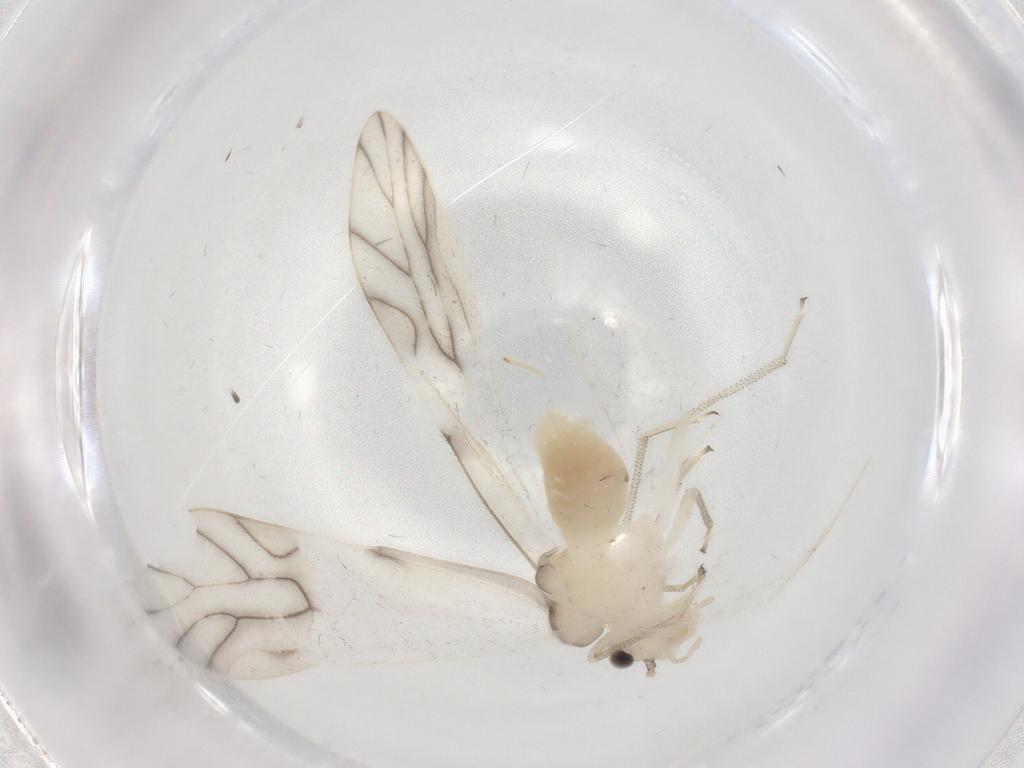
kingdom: Animalia
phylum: Arthropoda
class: Insecta
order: Psocodea
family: Caeciliusidae
